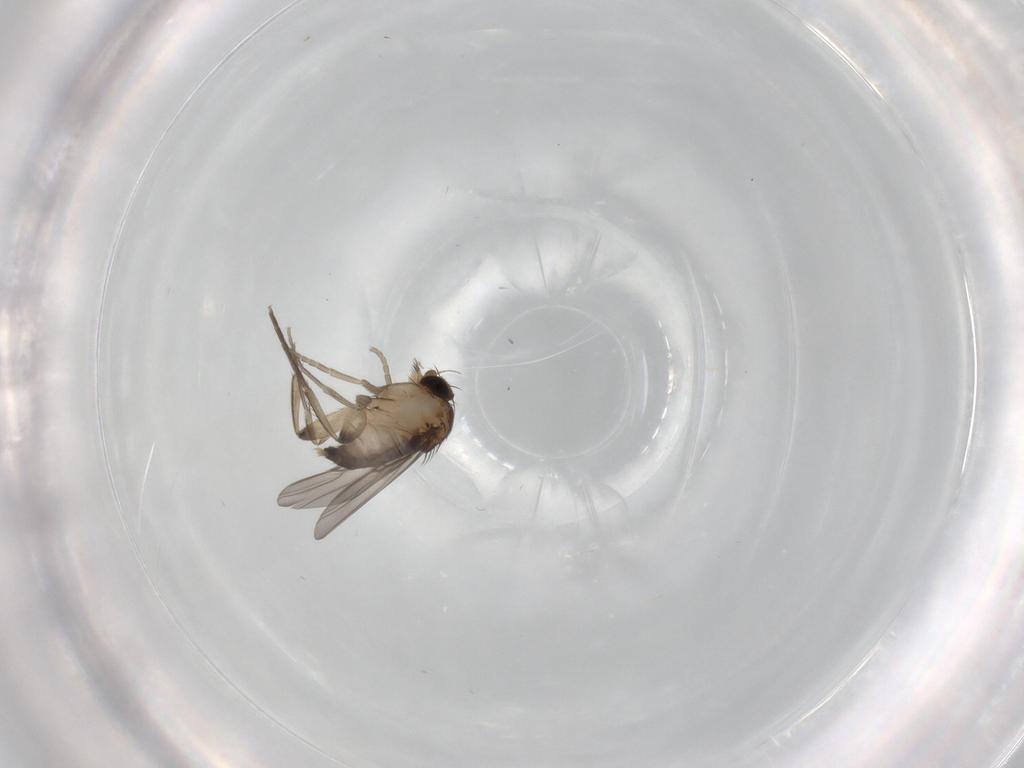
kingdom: Animalia
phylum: Arthropoda
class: Insecta
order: Diptera
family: Phoridae
